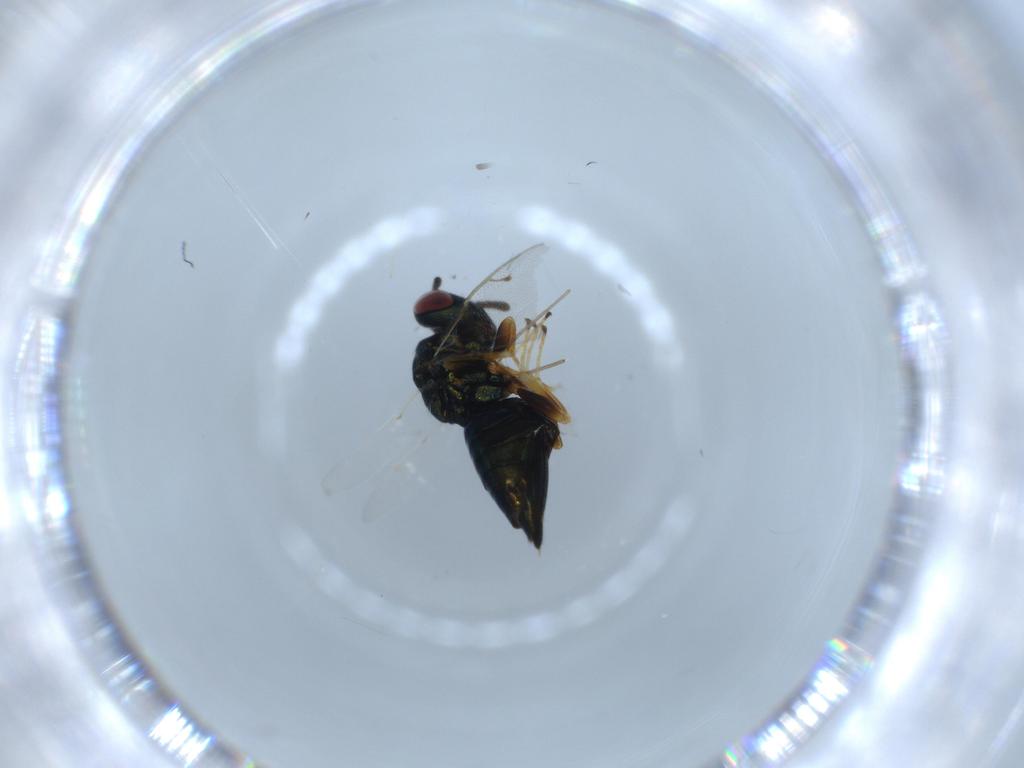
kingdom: Animalia
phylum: Arthropoda
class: Insecta
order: Hymenoptera
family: Pteromalidae
